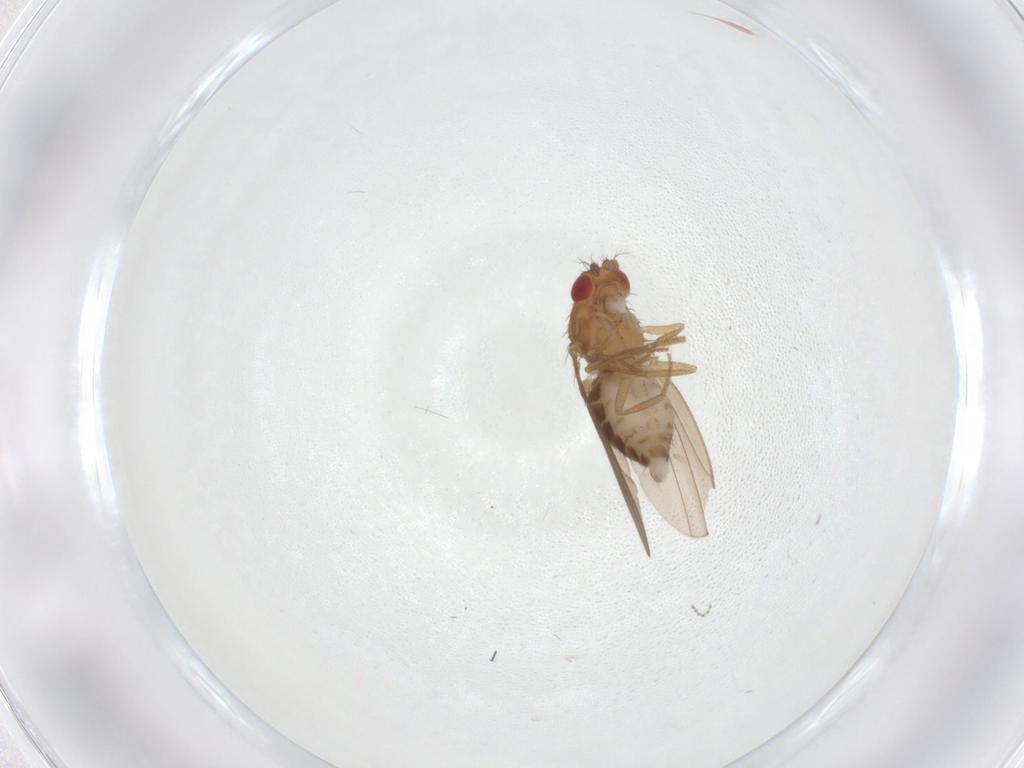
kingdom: Animalia
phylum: Arthropoda
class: Insecta
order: Diptera
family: Drosophilidae
